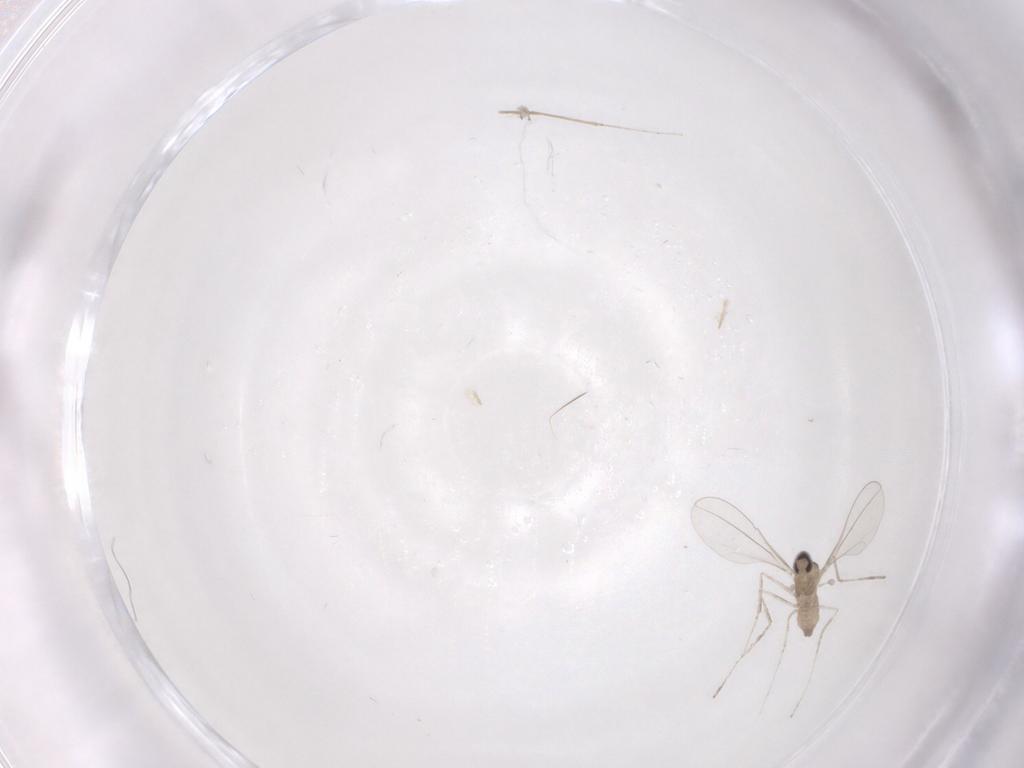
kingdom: Animalia
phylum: Arthropoda
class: Insecta
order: Diptera
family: Cecidomyiidae
